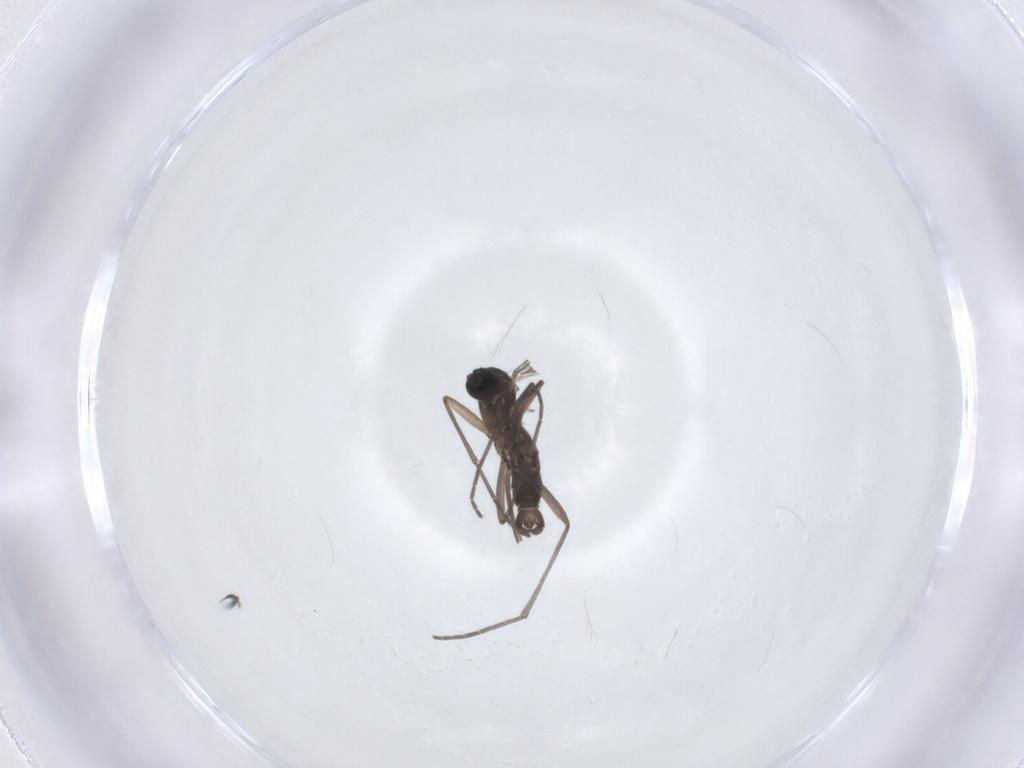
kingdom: Animalia
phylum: Arthropoda
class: Insecta
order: Diptera
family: Sciaridae
